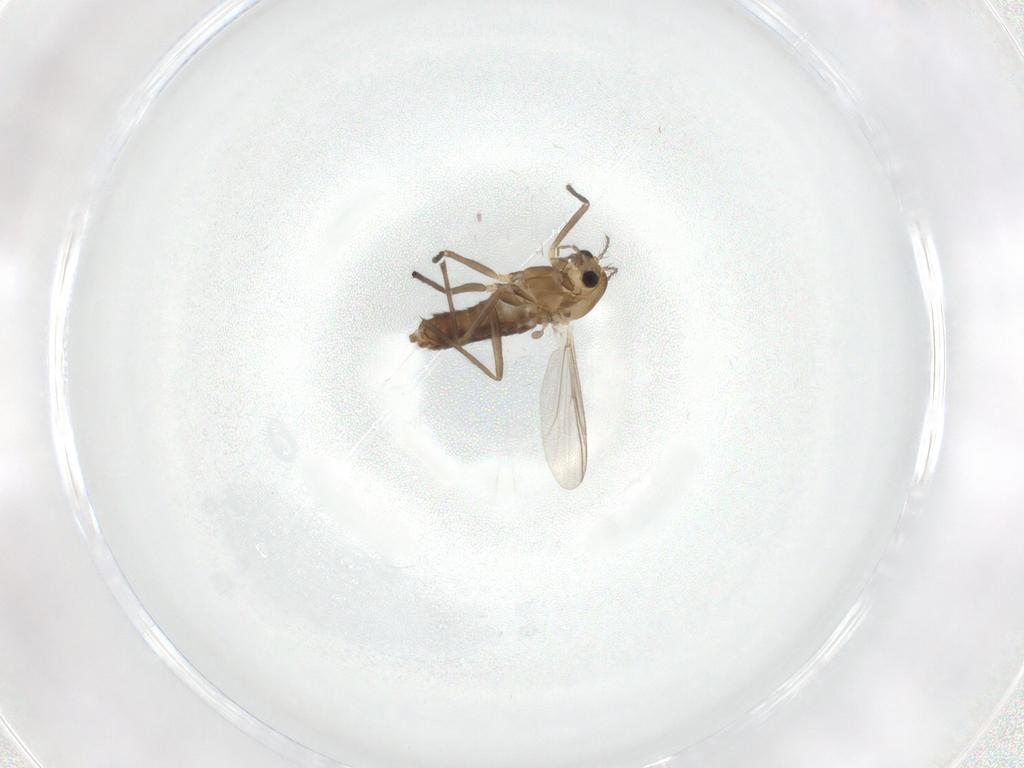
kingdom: Animalia
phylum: Arthropoda
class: Insecta
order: Diptera
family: Chironomidae
